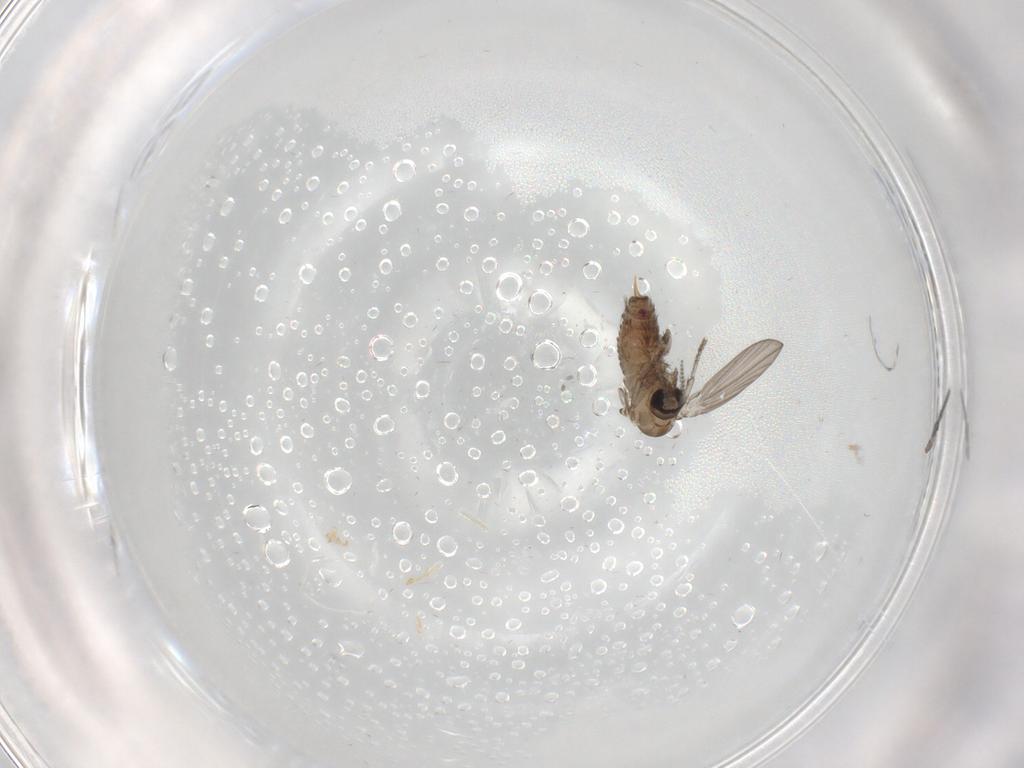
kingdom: Animalia
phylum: Arthropoda
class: Insecta
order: Diptera
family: Psychodidae
